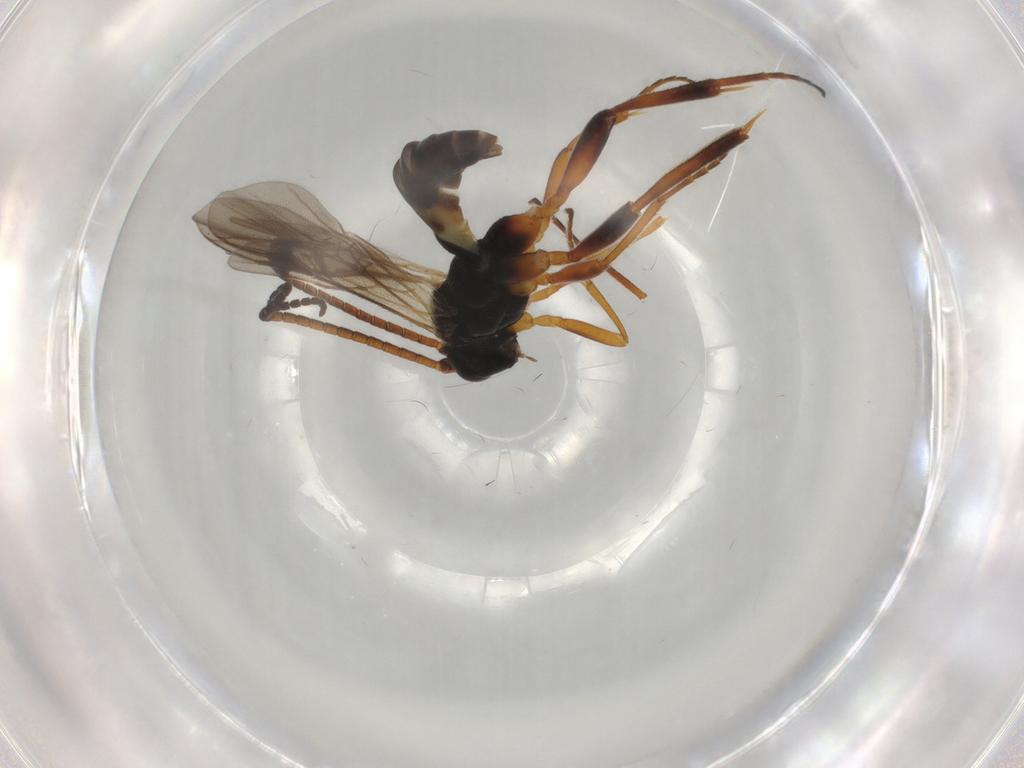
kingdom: Animalia
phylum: Arthropoda
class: Insecta
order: Hymenoptera
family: Braconidae
